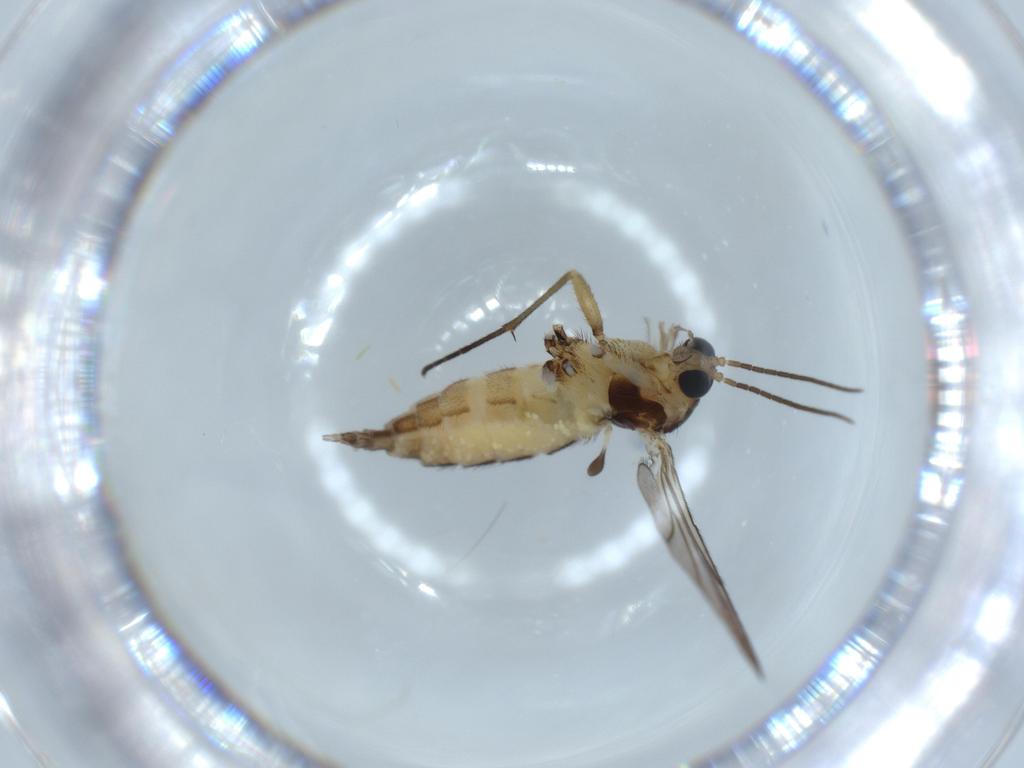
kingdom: Animalia
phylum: Arthropoda
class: Insecta
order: Diptera
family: Sciaridae
